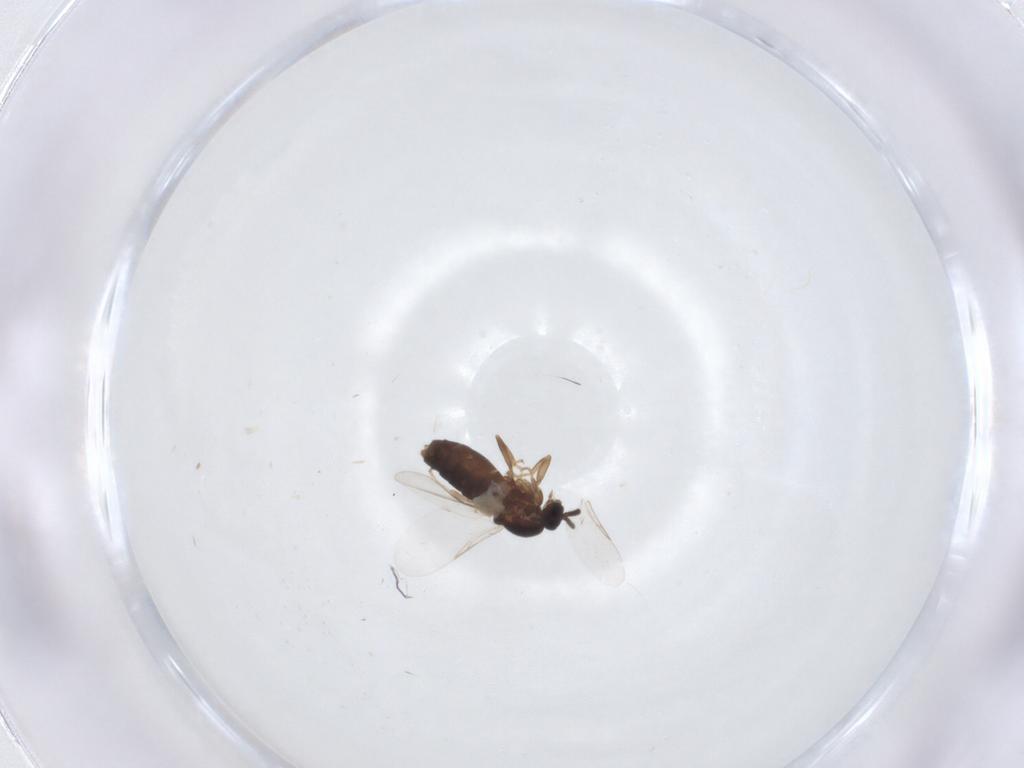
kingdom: Animalia
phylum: Arthropoda
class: Insecta
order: Diptera
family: Scatopsidae
